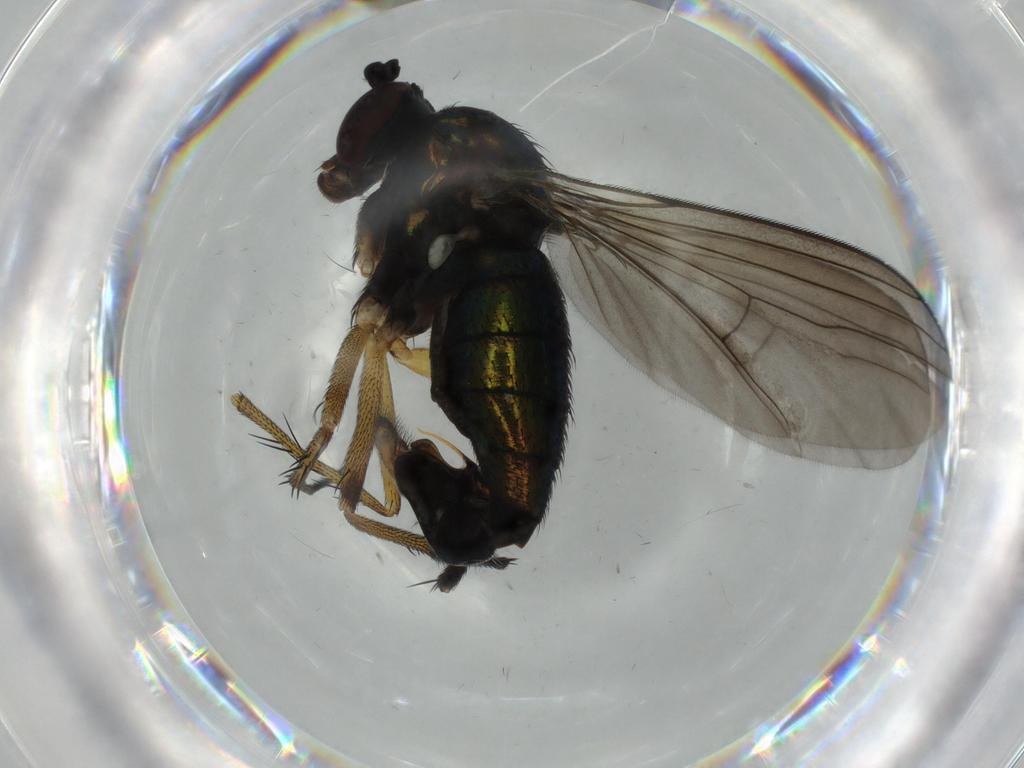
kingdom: Animalia
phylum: Arthropoda
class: Insecta
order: Diptera
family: Dolichopodidae
